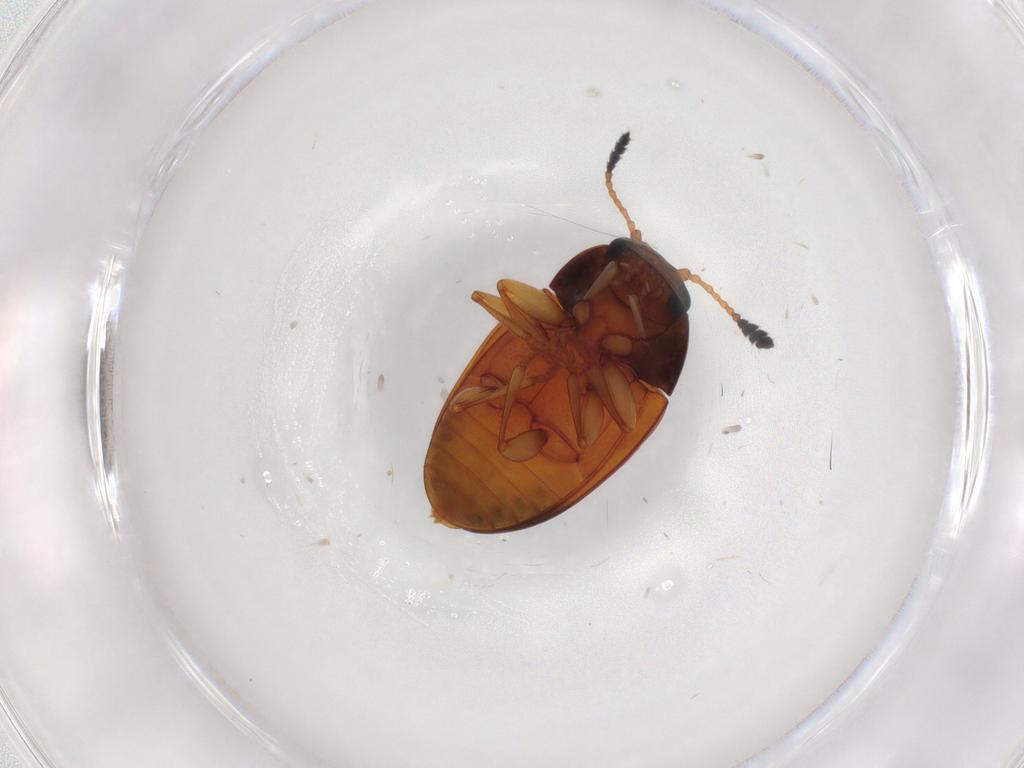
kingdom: Animalia
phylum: Arthropoda
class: Insecta
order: Coleoptera
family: Erotylidae
